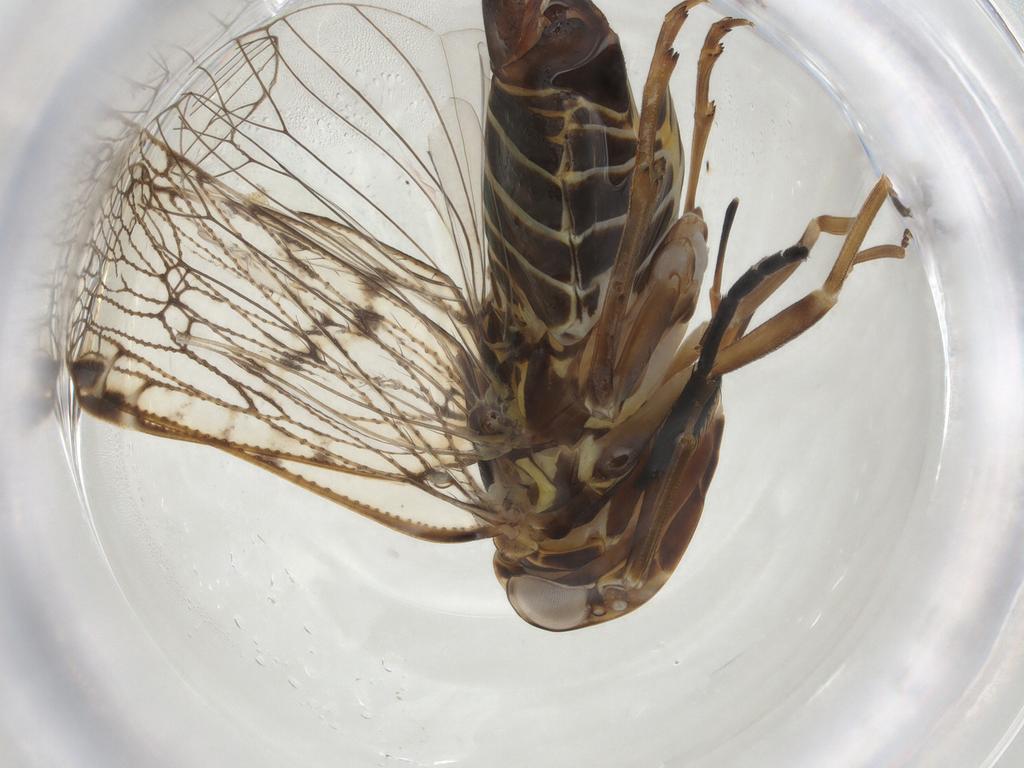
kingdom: Animalia
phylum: Arthropoda
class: Insecta
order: Hemiptera
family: Cixiidae
